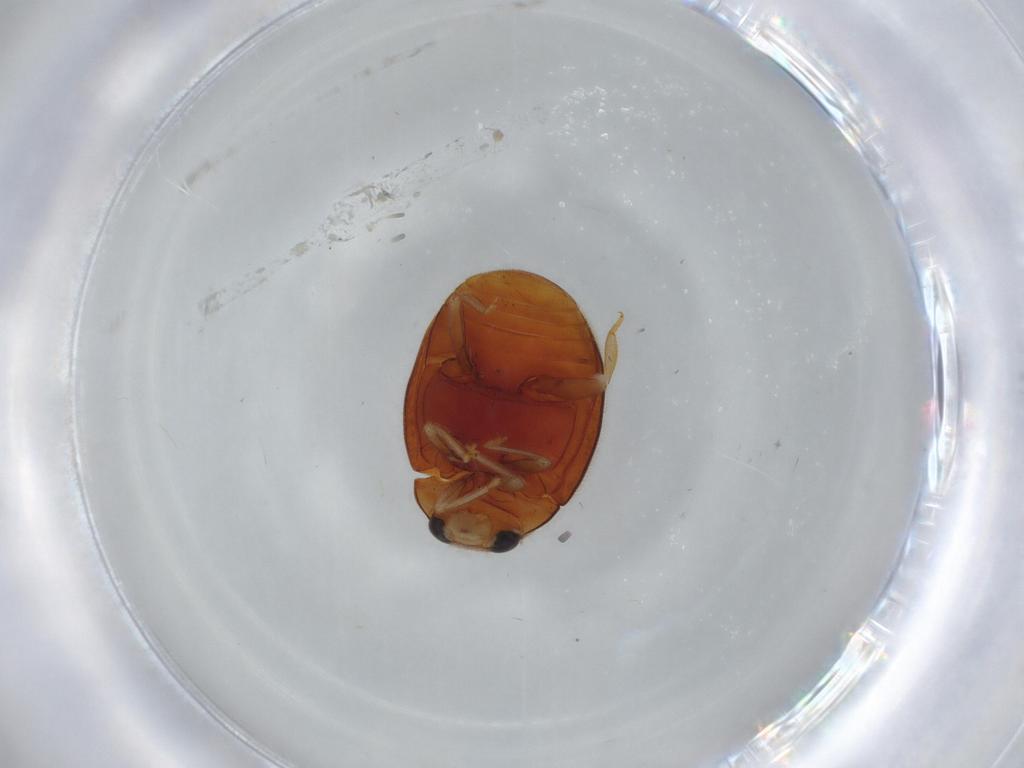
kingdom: Animalia
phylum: Arthropoda
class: Insecta
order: Coleoptera
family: Coccinellidae
